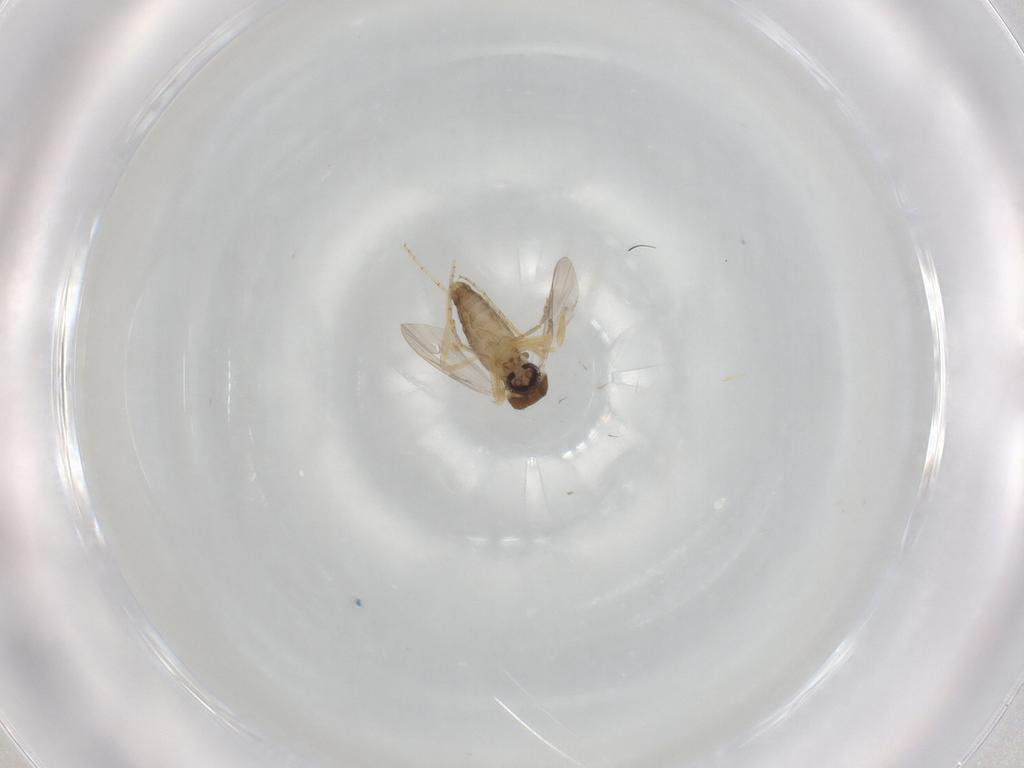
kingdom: Animalia
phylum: Arthropoda
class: Insecta
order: Diptera
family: Ceratopogonidae
